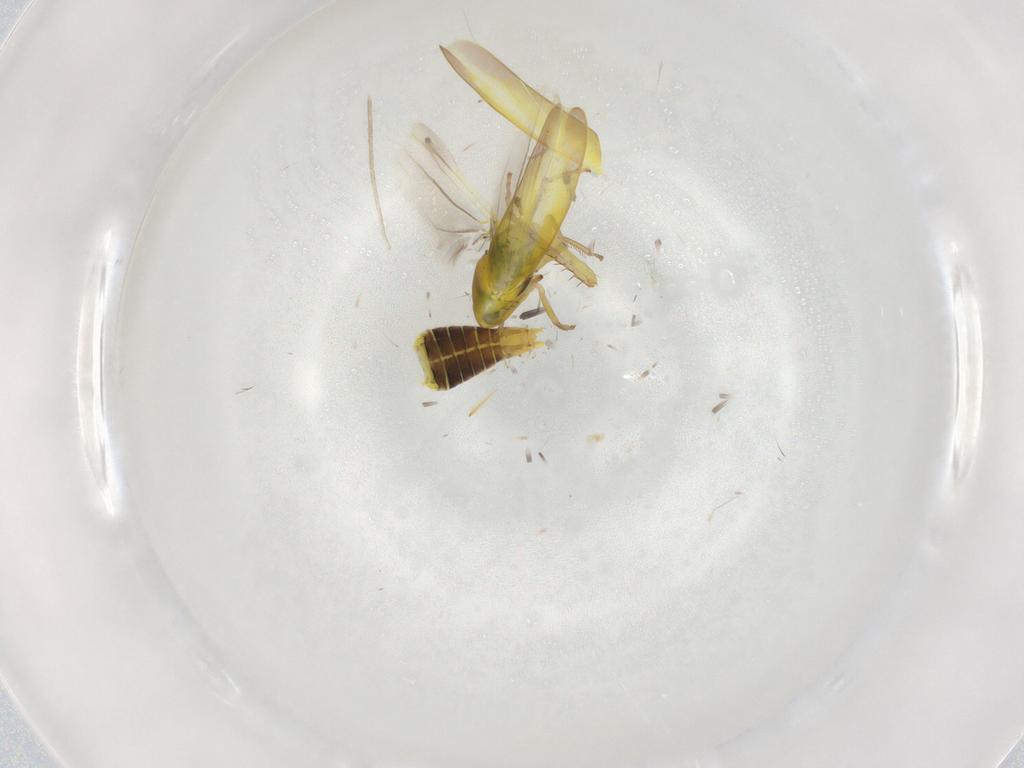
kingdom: Animalia
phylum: Arthropoda
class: Insecta
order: Hemiptera
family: Cicadellidae
